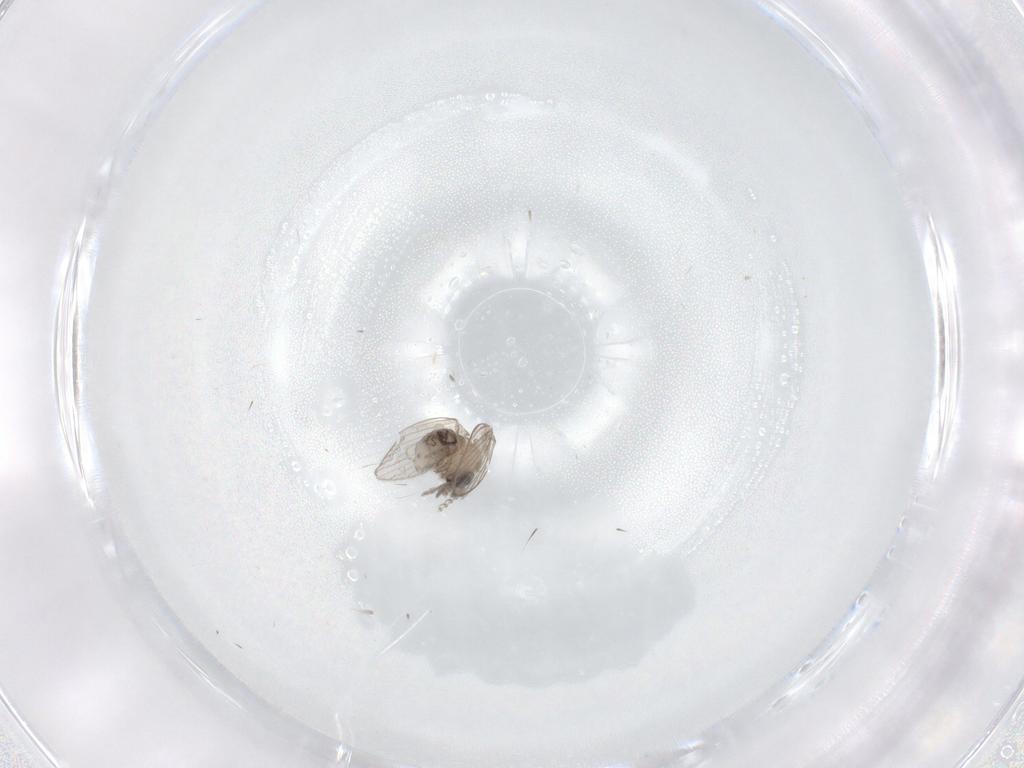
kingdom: Animalia
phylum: Arthropoda
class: Insecta
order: Diptera
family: Psychodidae
